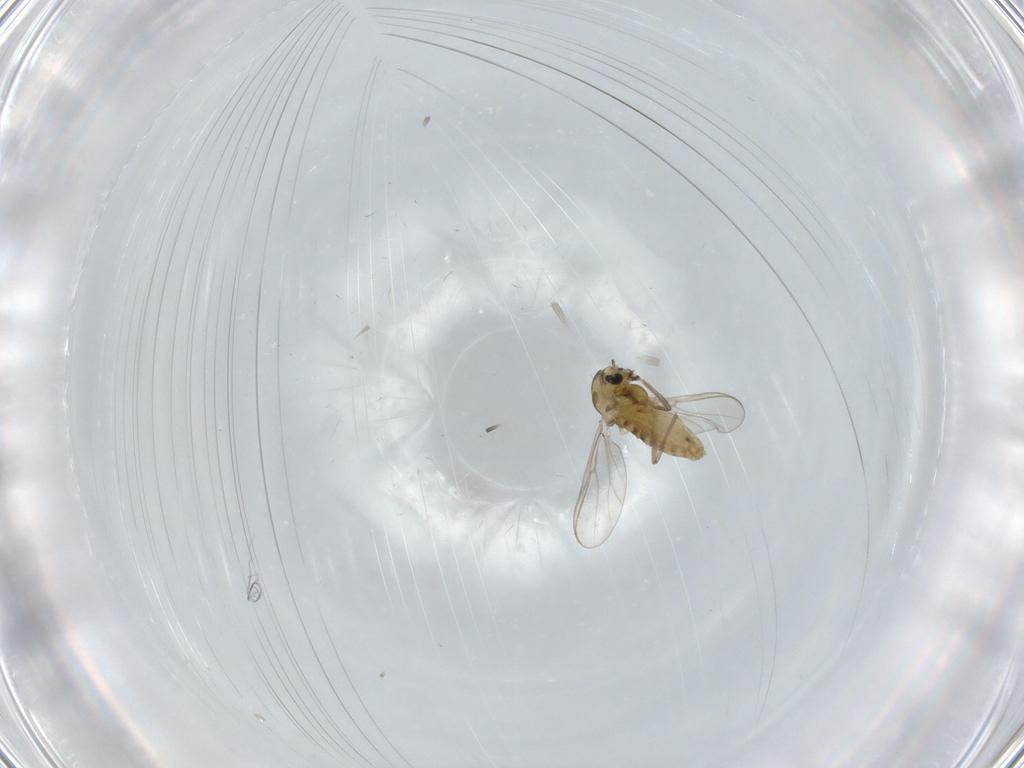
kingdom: Animalia
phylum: Arthropoda
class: Insecta
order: Diptera
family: Chironomidae
